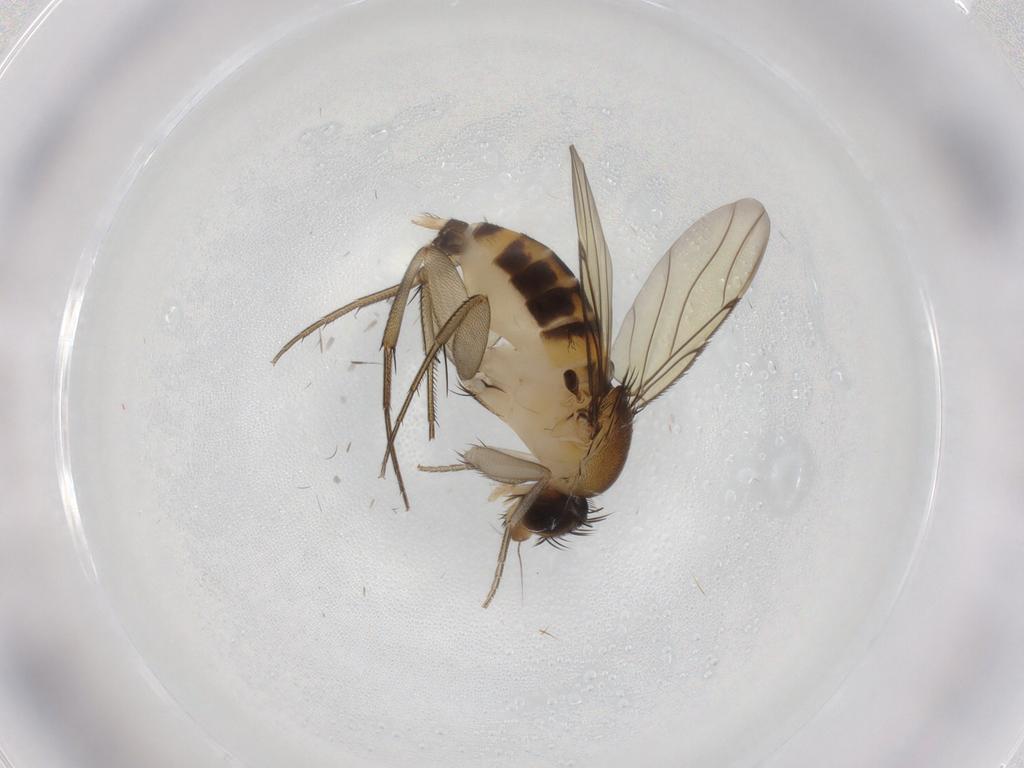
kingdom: Animalia
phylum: Arthropoda
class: Insecta
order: Diptera
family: Phoridae
